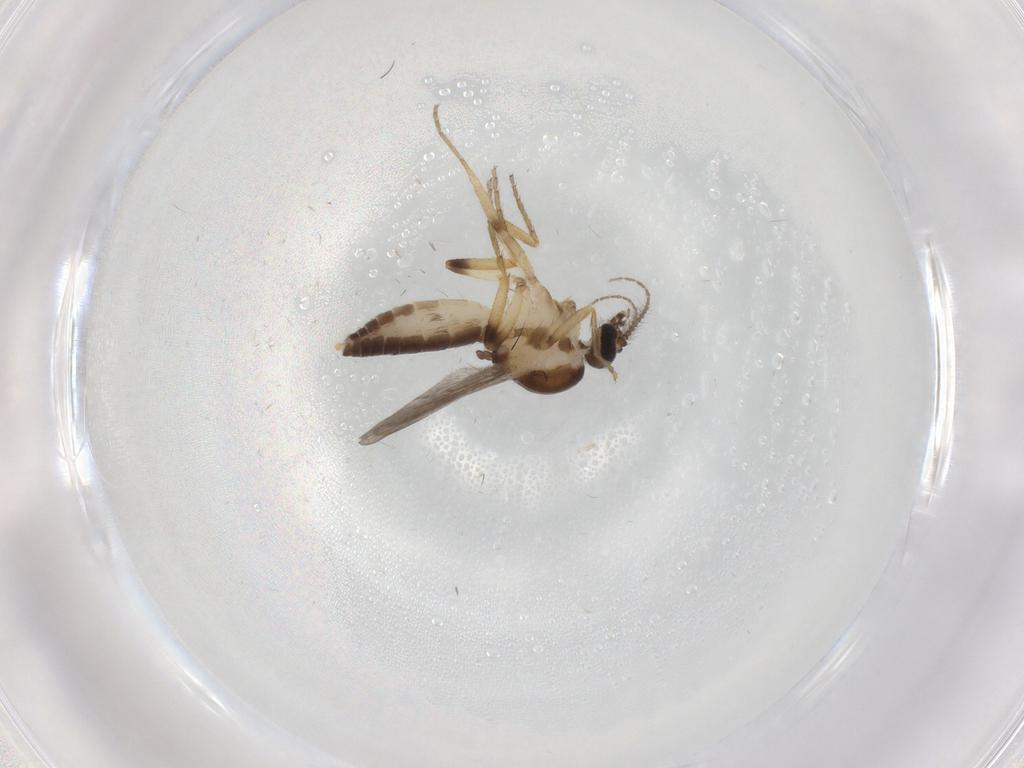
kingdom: Animalia
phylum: Arthropoda
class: Insecta
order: Diptera
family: Ceratopogonidae
